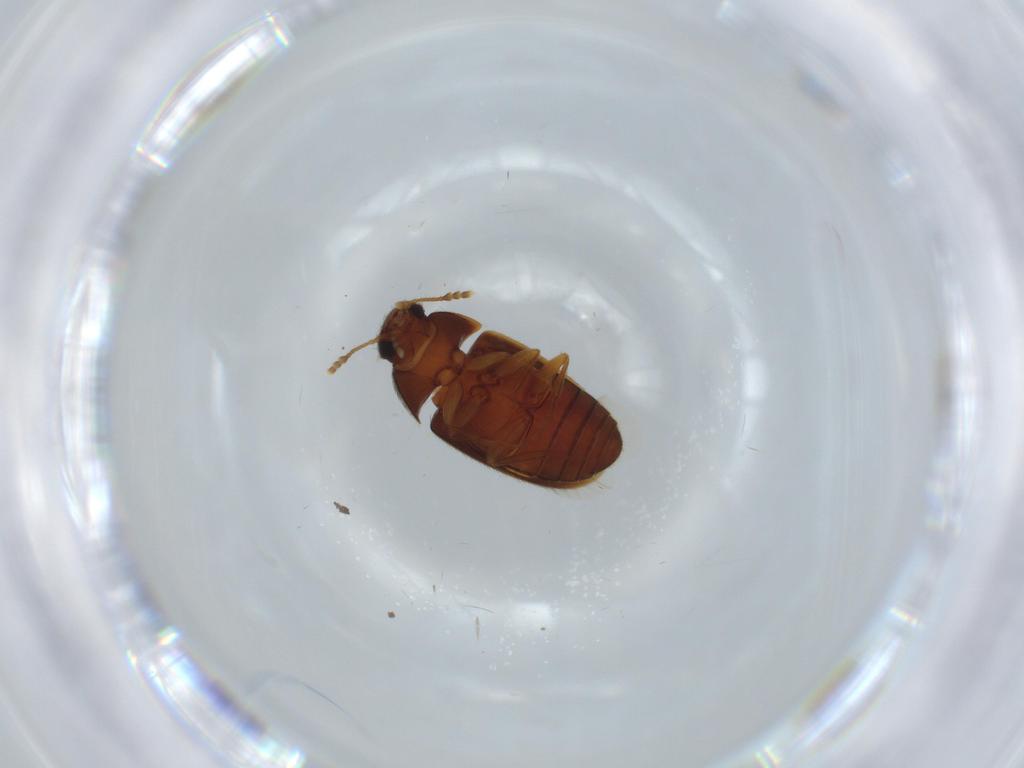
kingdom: Animalia
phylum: Arthropoda
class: Insecta
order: Coleoptera
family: Mycetophagidae
